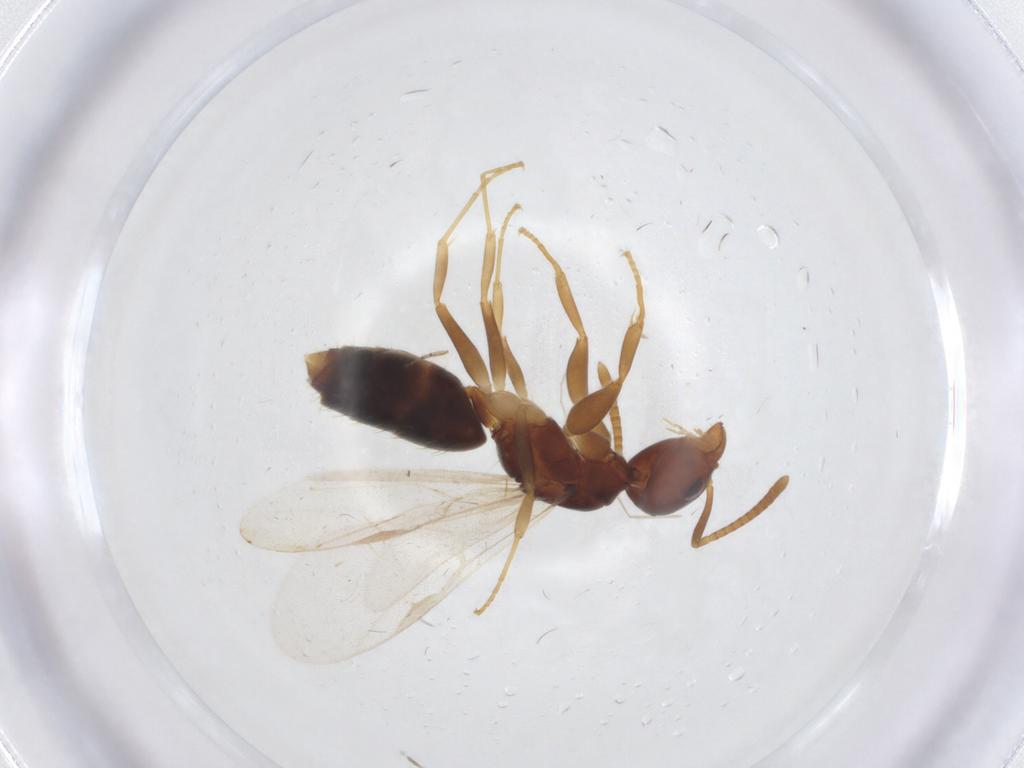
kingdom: Animalia
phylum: Arthropoda
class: Insecta
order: Hymenoptera
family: Formicidae
